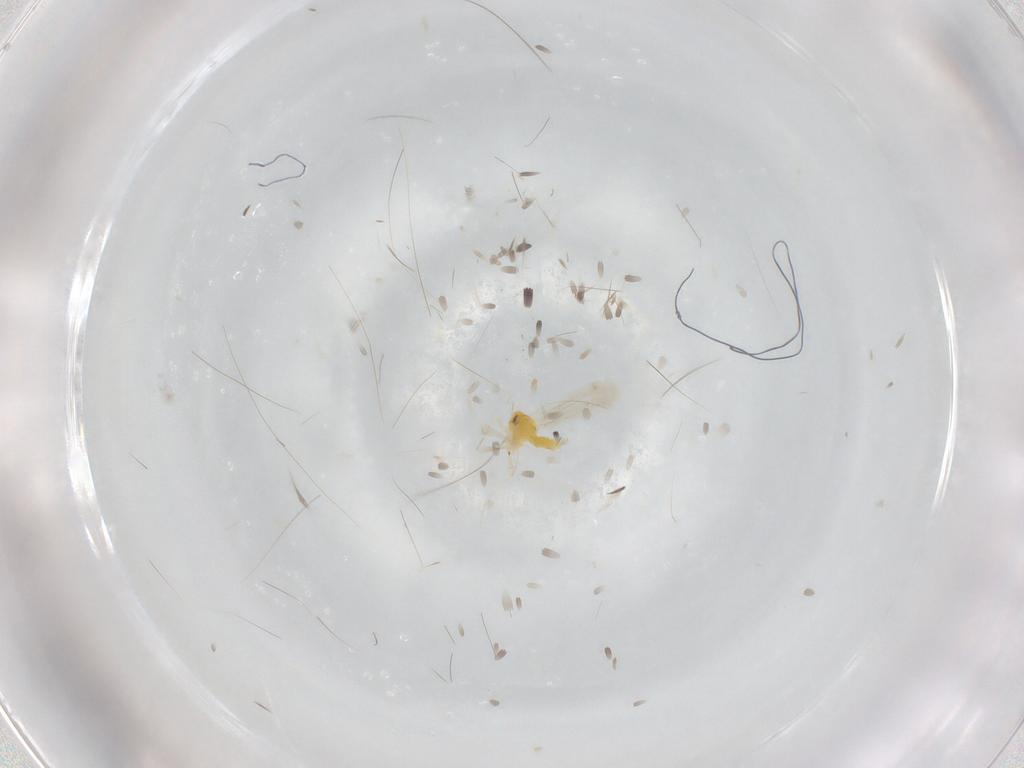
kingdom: Animalia
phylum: Arthropoda
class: Insecta
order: Hemiptera
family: Aleyrodidae
